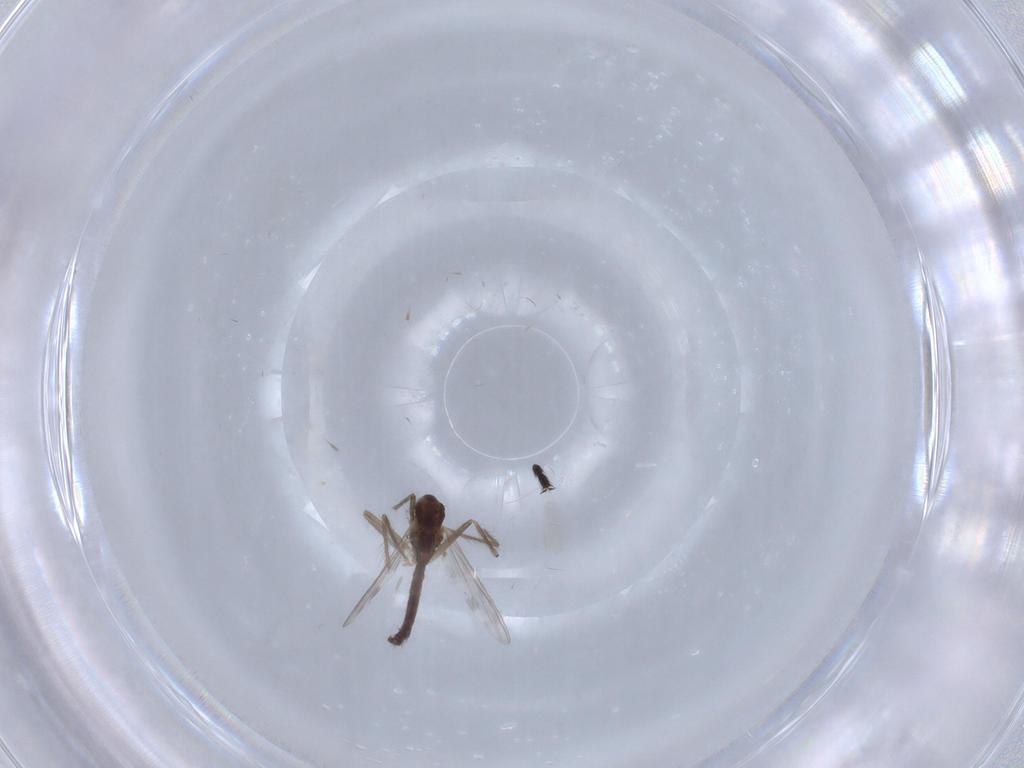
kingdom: Animalia
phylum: Arthropoda
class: Insecta
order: Diptera
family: Chironomidae
